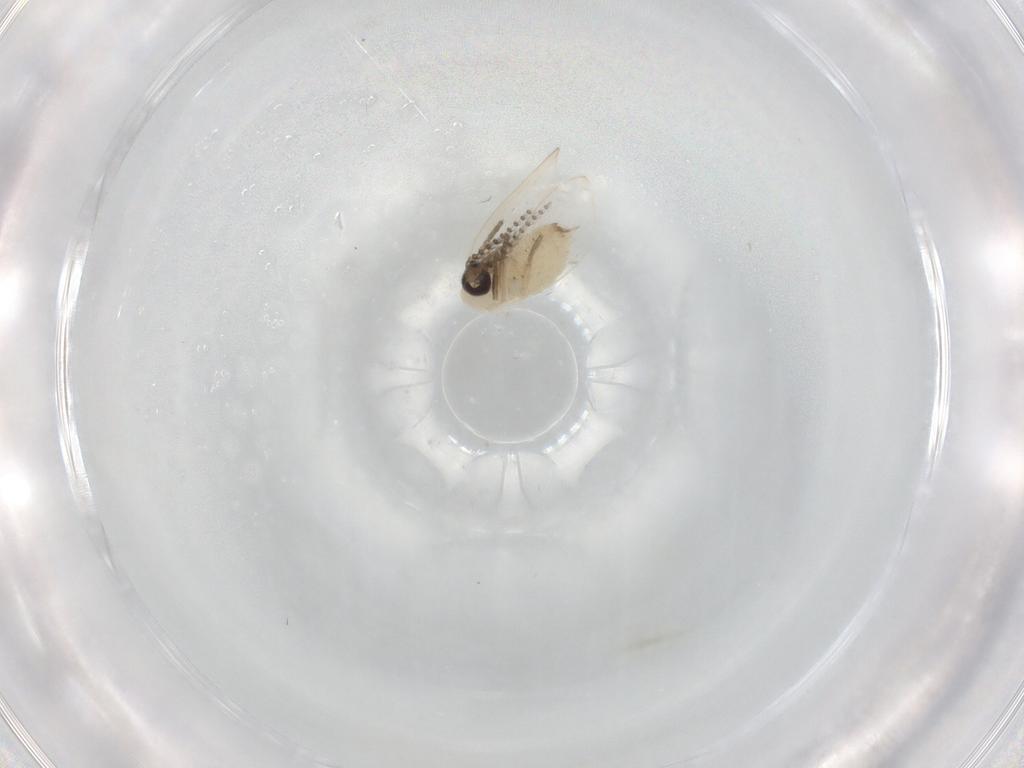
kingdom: Animalia
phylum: Arthropoda
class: Insecta
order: Diptera
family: Psychodidae
